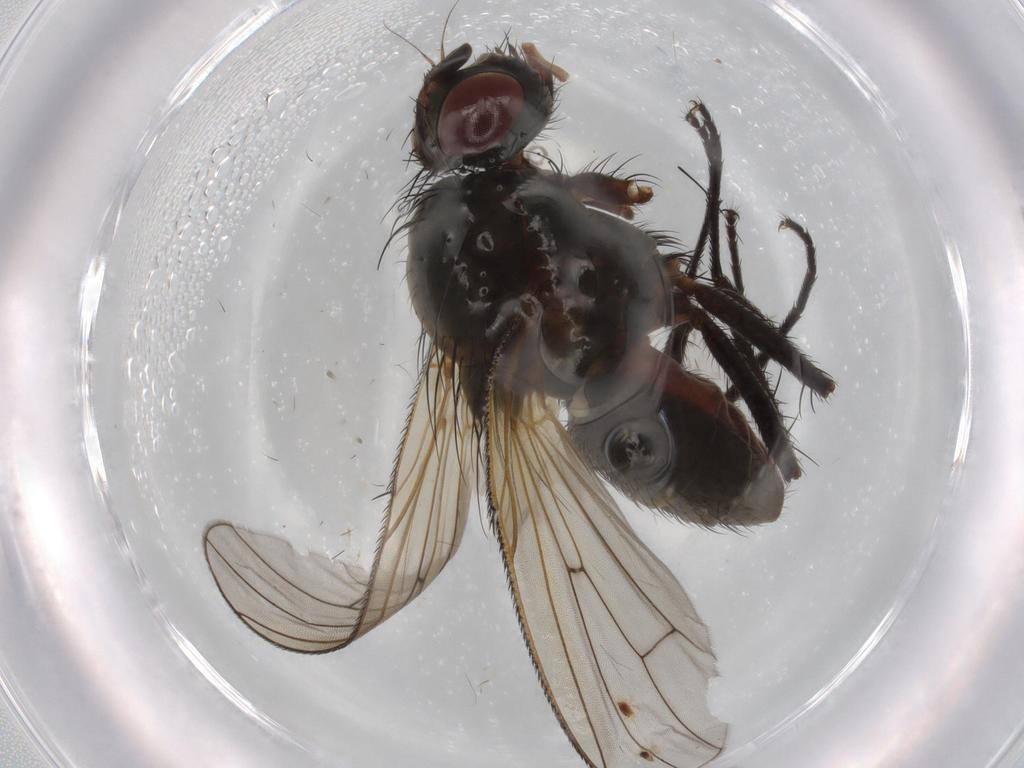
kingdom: Animalia
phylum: Arthropoda
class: Insecta
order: Diptera
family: Anthomyiidae
